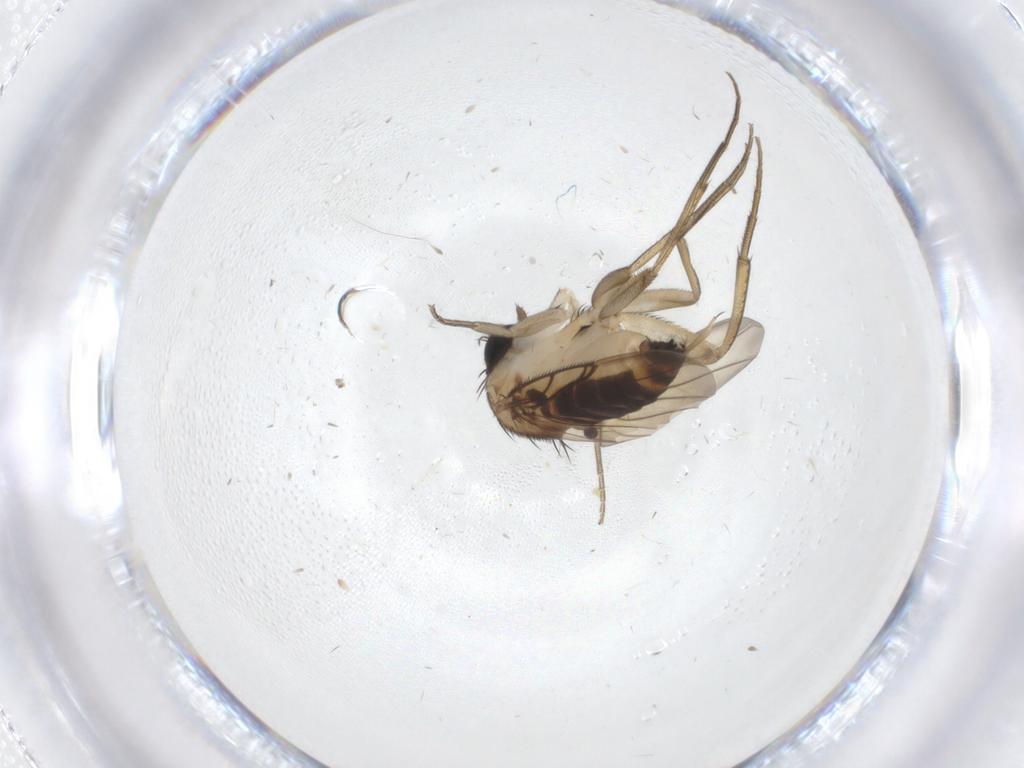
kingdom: Animalia
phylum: Arthropoda
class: Insecta
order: Diptera
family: Phoridae
